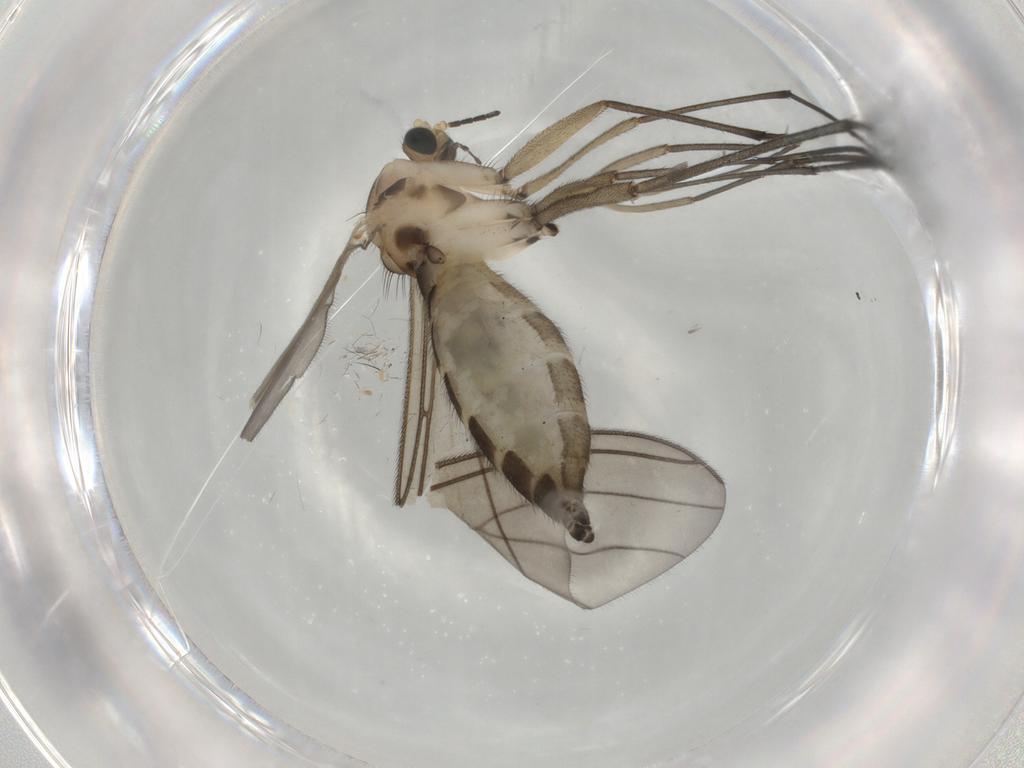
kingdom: Animalia
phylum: Arthropoda
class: Insecta
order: Diptera
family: Sciaridae
